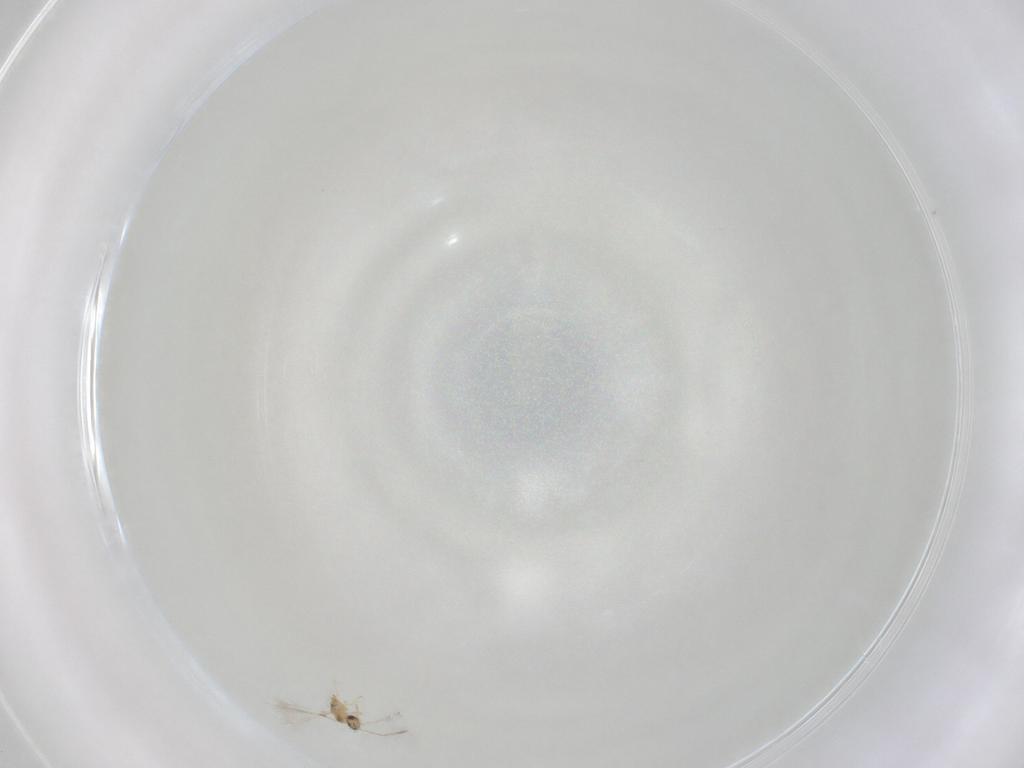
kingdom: Animalia
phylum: Arthropoda
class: Insecta
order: Hymenoptera
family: Mymaridae
